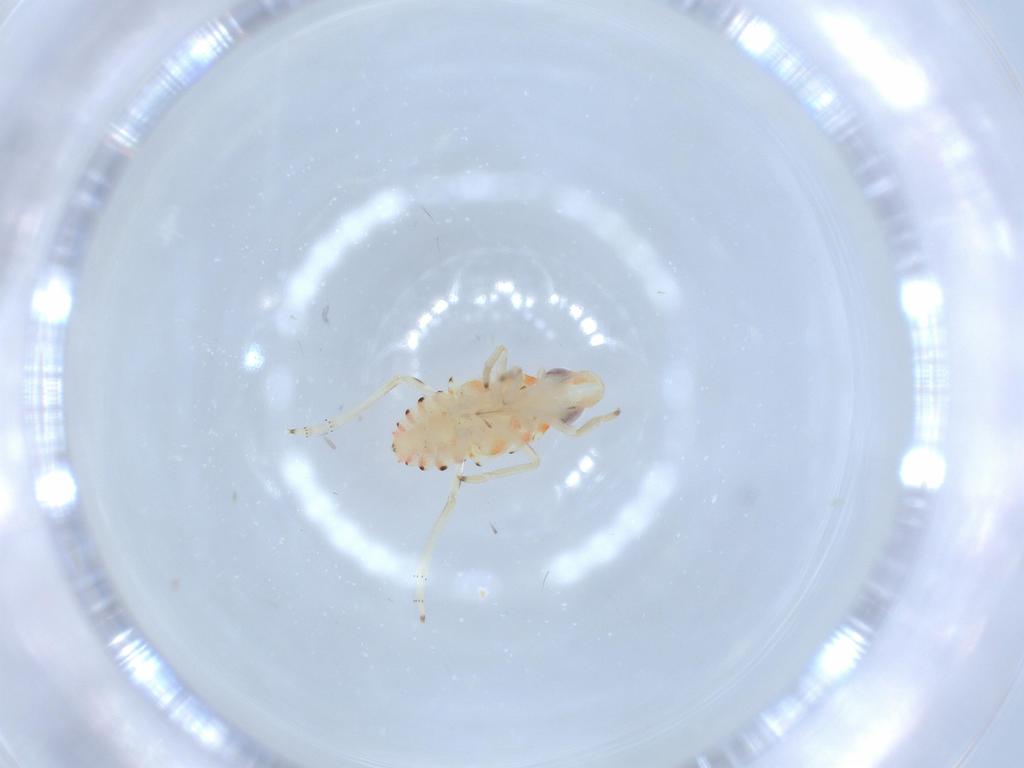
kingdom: Animalia
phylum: Arthropoda
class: Insecta
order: Hemiptera
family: Tropiduchidae
